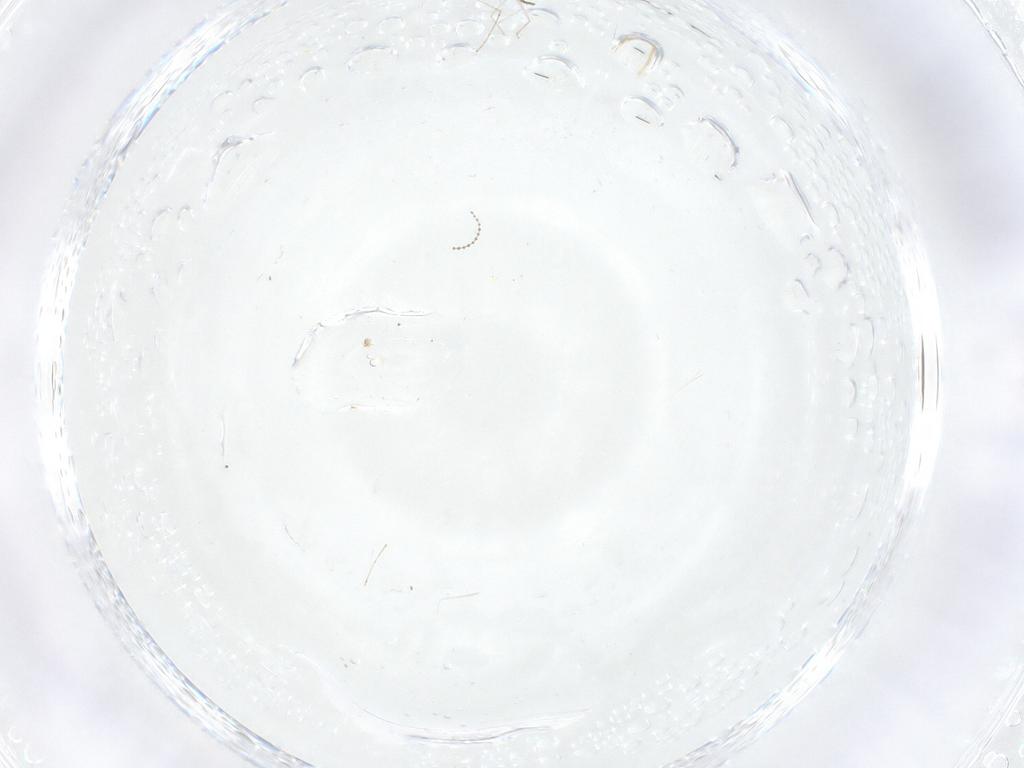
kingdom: Animalia
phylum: Arthropoda
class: Insecta
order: Diptera
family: Cecidomyiidae
